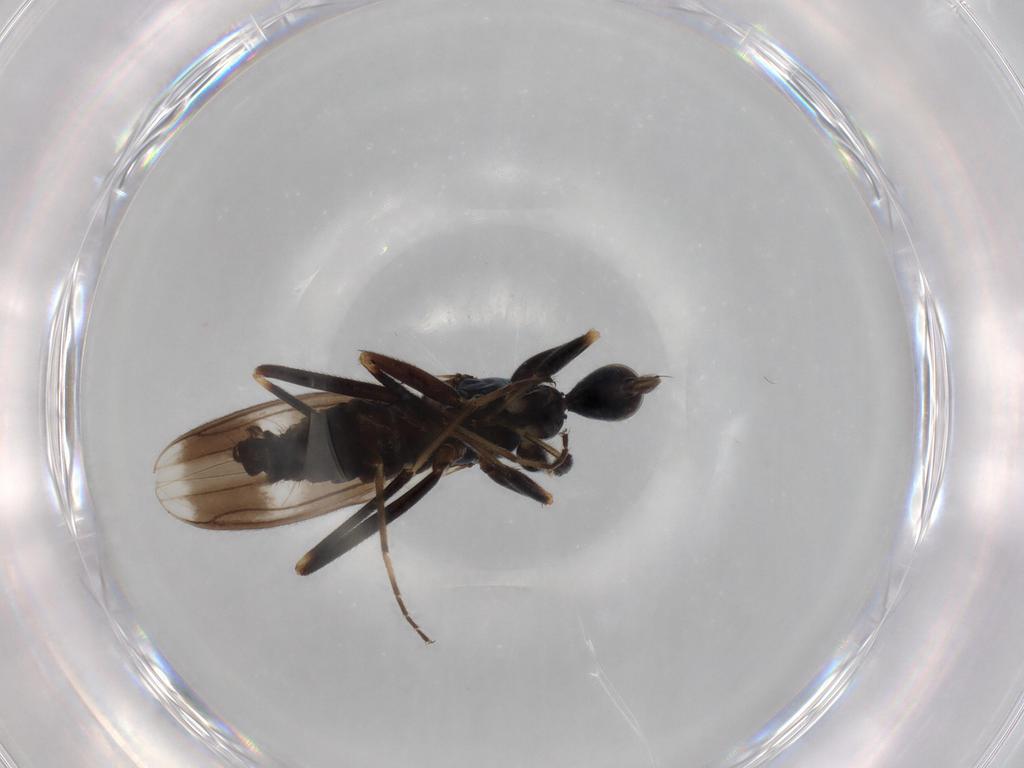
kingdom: Animalia
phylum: Arthropoda
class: Insecta
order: Diptera
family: Hybotidae
